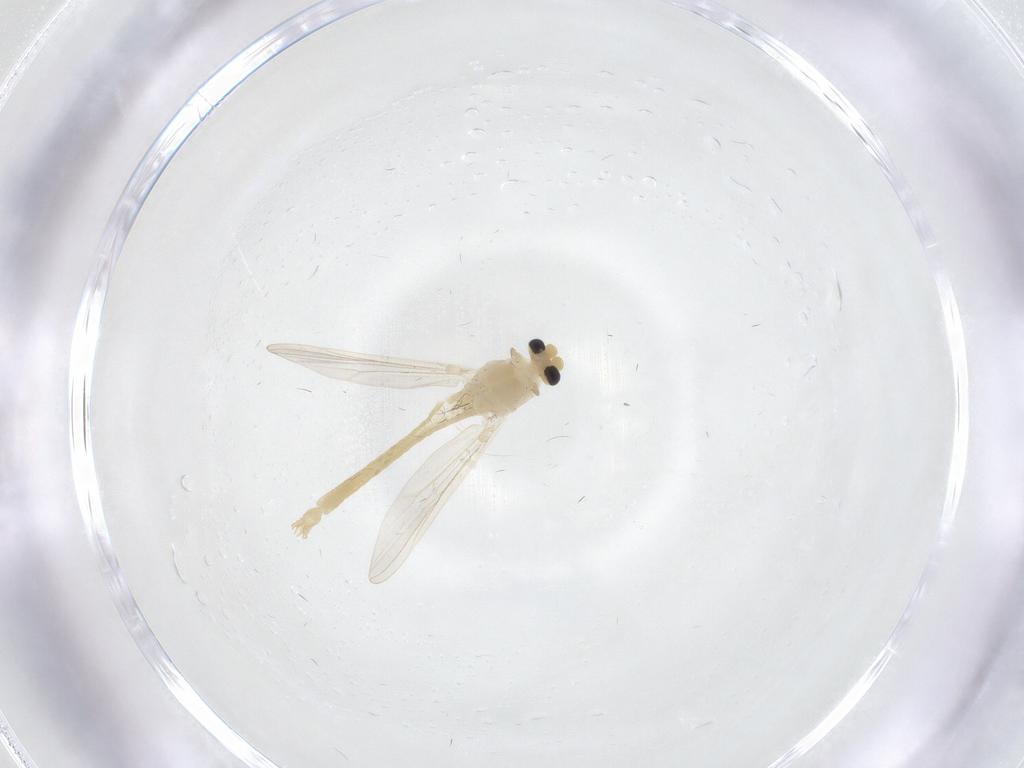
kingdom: Animalia
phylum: Arthropoda
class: Insecta
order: Diptera
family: Chironomidae
